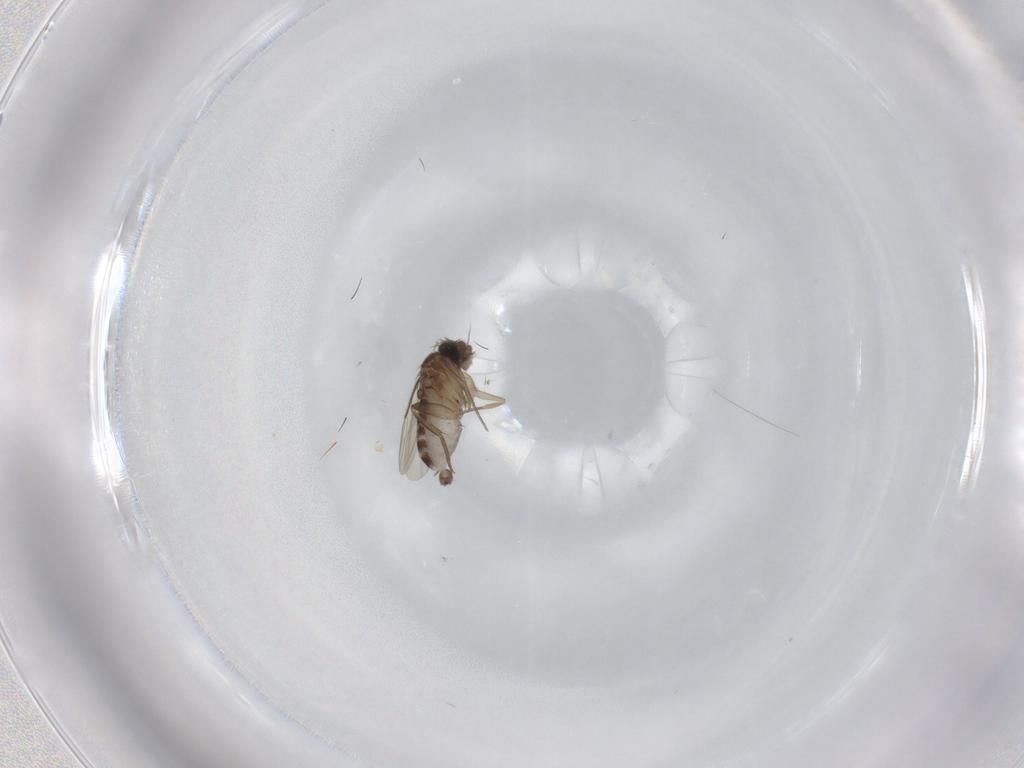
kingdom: Animalia
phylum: Arthropoda
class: Insecta
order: Diptera
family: Phoridae
